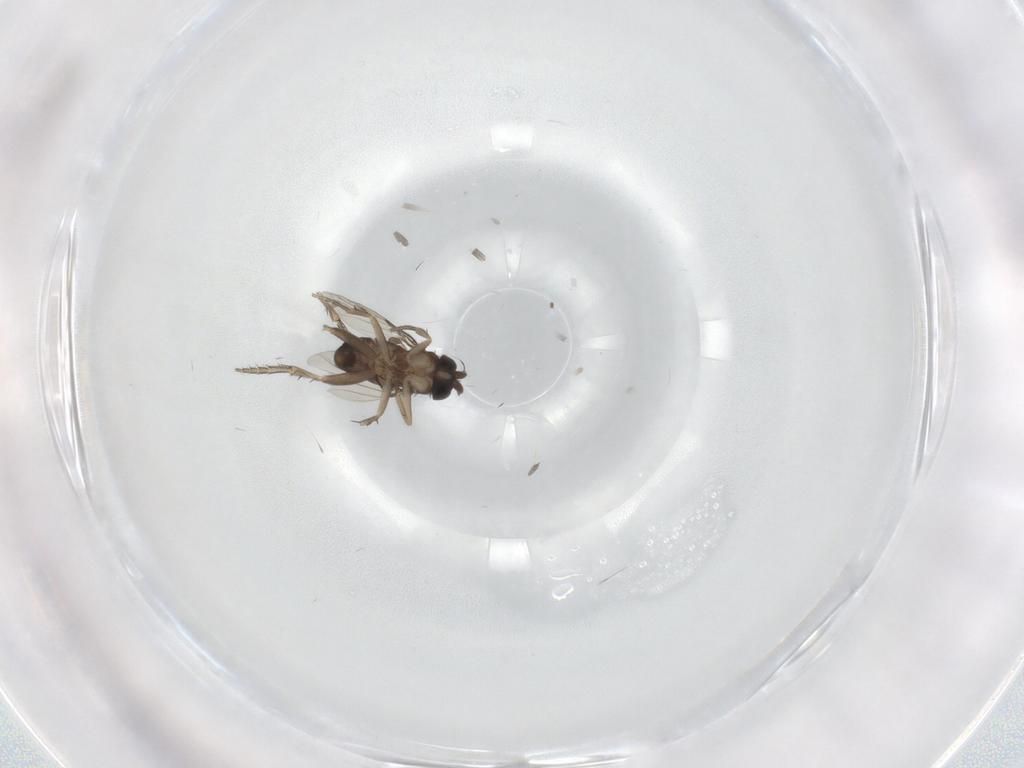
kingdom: Animalia
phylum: Arthropoda
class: Insecta
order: Diptera
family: Phoridae
